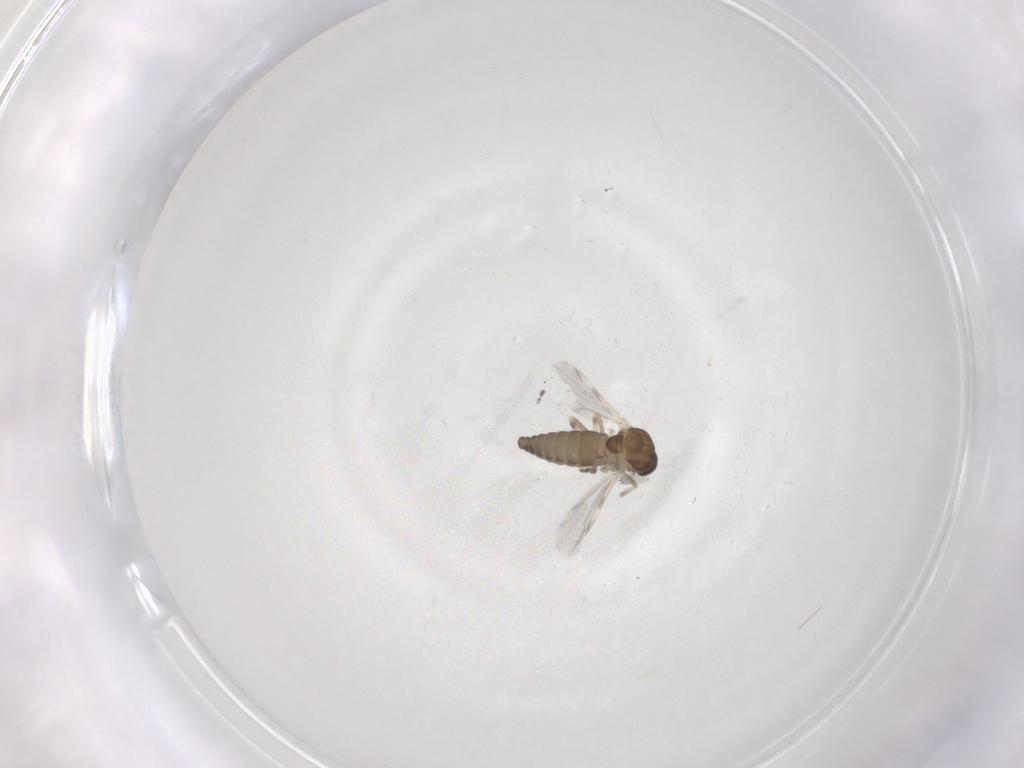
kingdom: Animalia
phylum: Arthropoda
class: Insecta
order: Diptera
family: Ceratopogonidae
